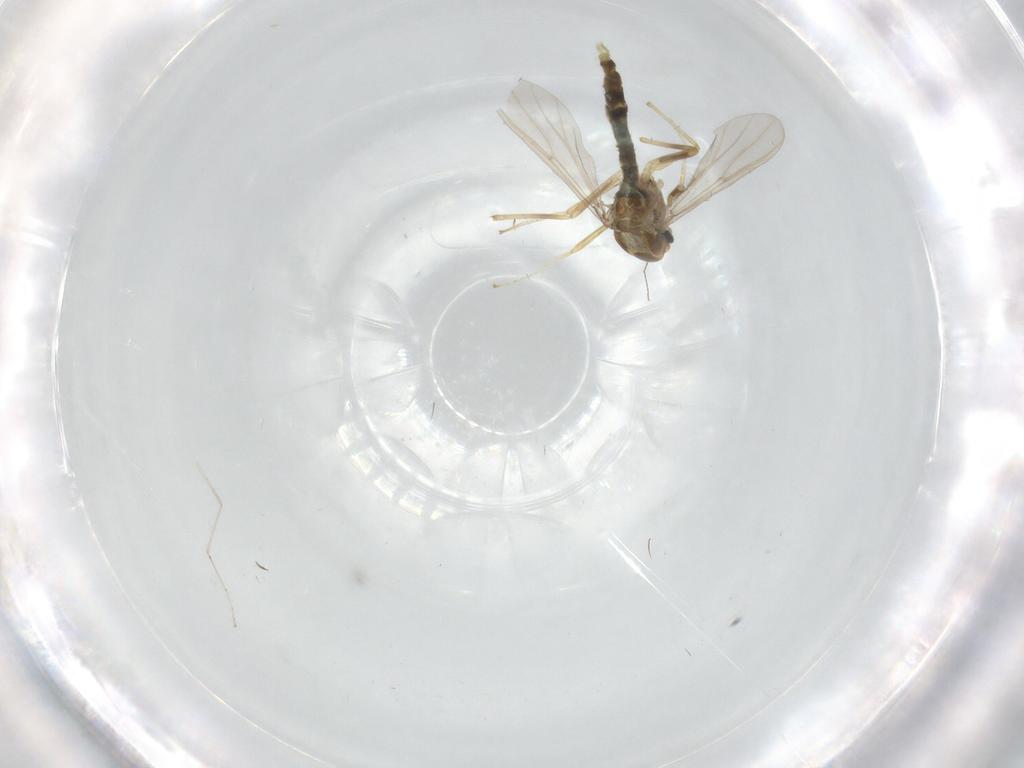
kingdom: Animalia
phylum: Arthropoda
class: Insecta
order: Diptera
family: Chironomidae
